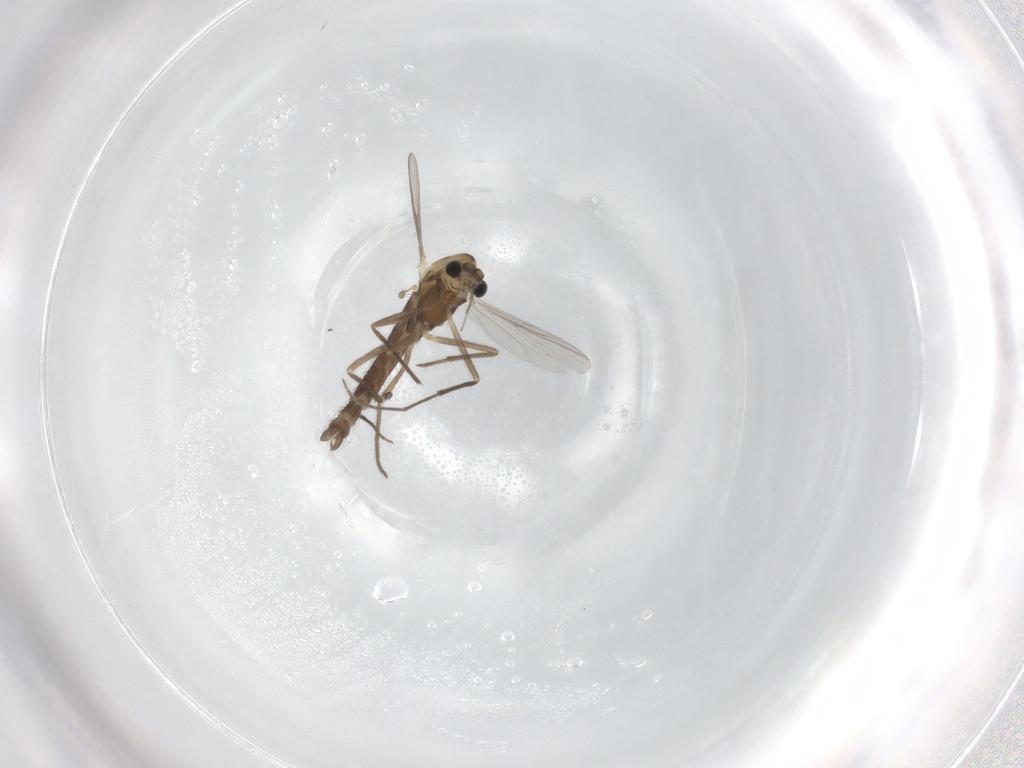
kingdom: Animalia
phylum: Arthropoda
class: Insecta
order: Diptera
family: Chironomidae
